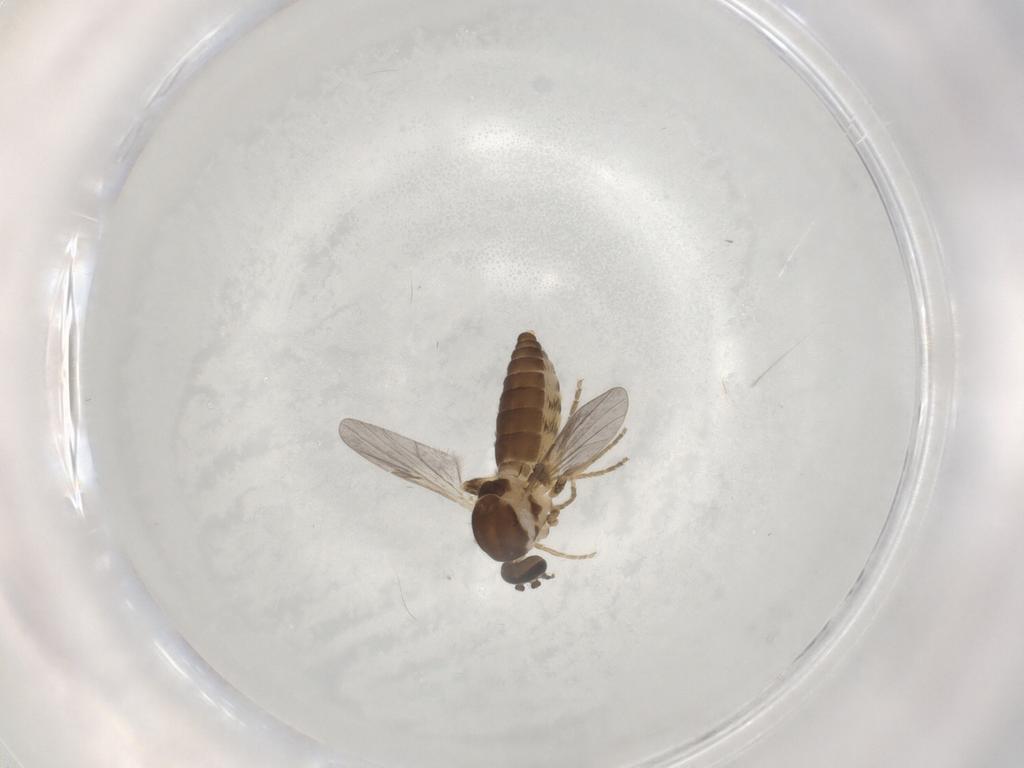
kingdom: Animalia
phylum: Arthropoda
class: Insecta
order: Diptera
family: Ceratopogonidae
